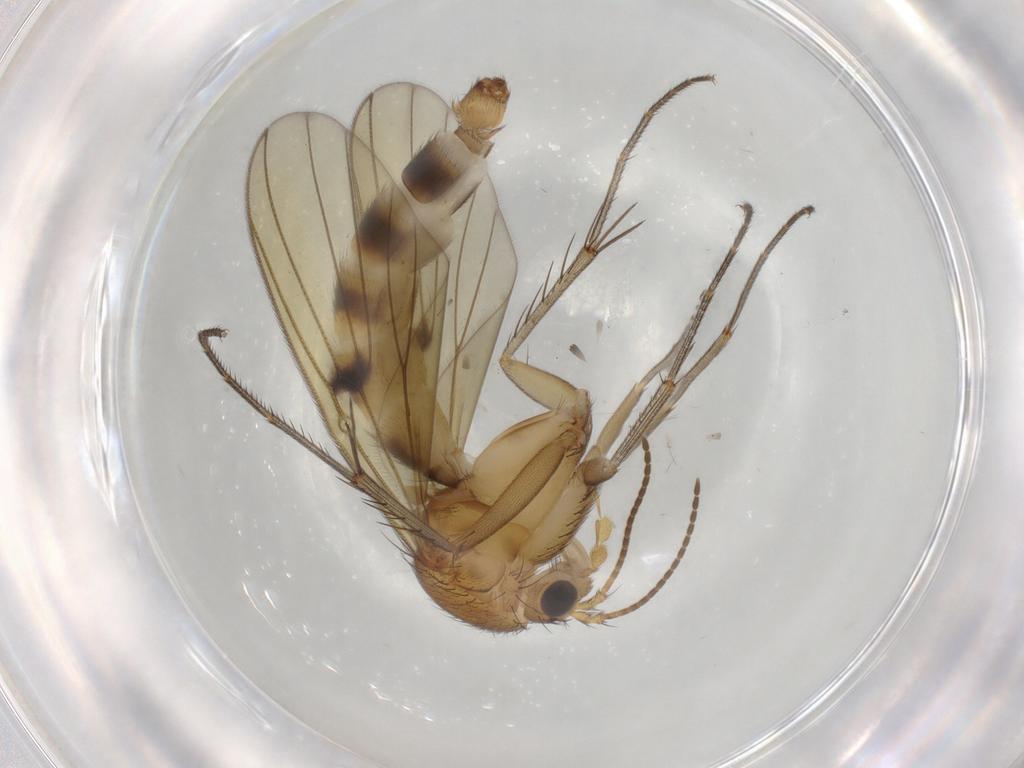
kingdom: Animalia
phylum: Arthropoda
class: Insecta
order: Diptera
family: Mycetophilidae
